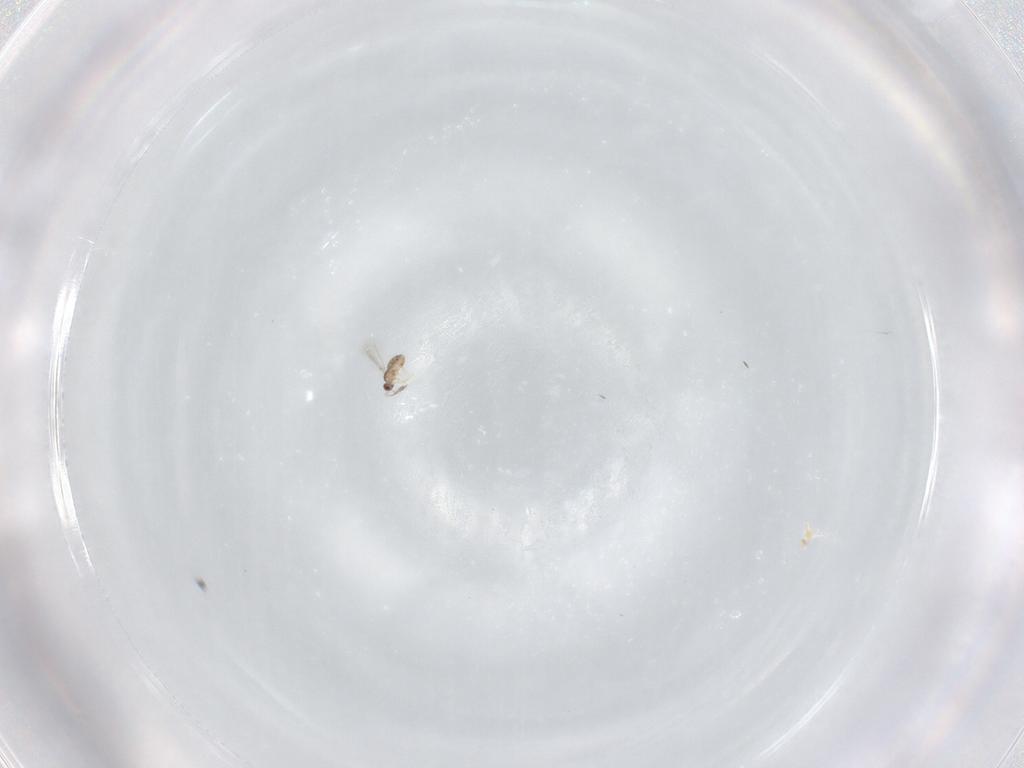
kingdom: Animalia
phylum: Arthropoda
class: Insecta
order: Hymenoptera
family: Mymaridae
